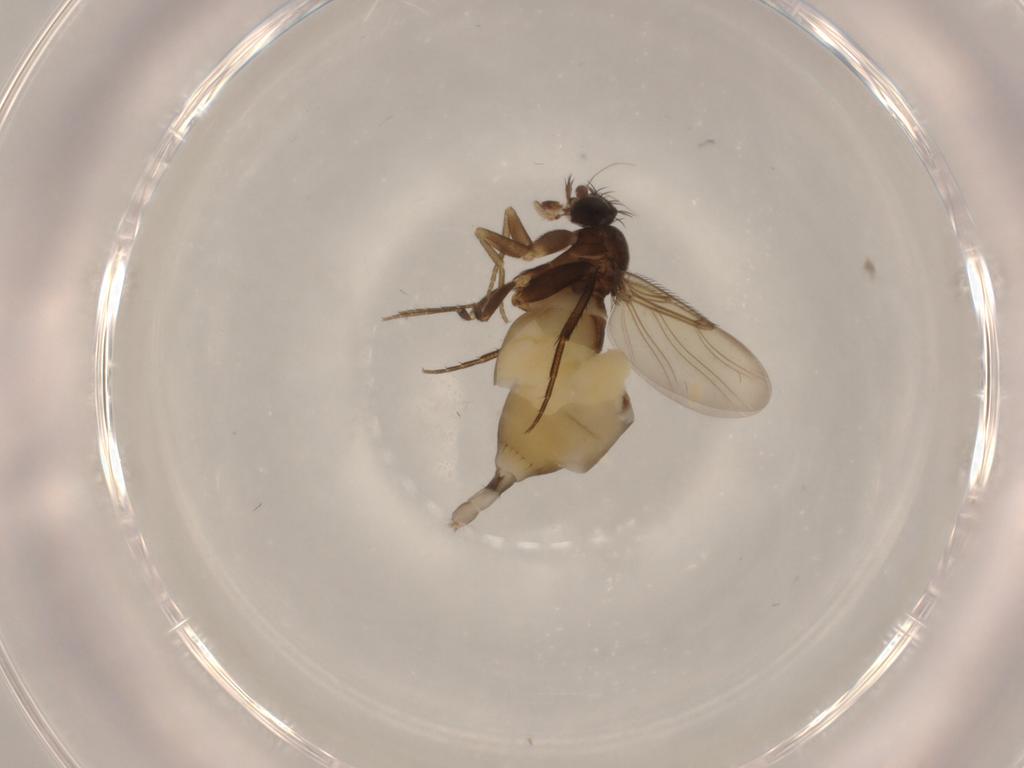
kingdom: Animalia
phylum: Arthropoda
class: Insecta
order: Diptera
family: Phoridae
